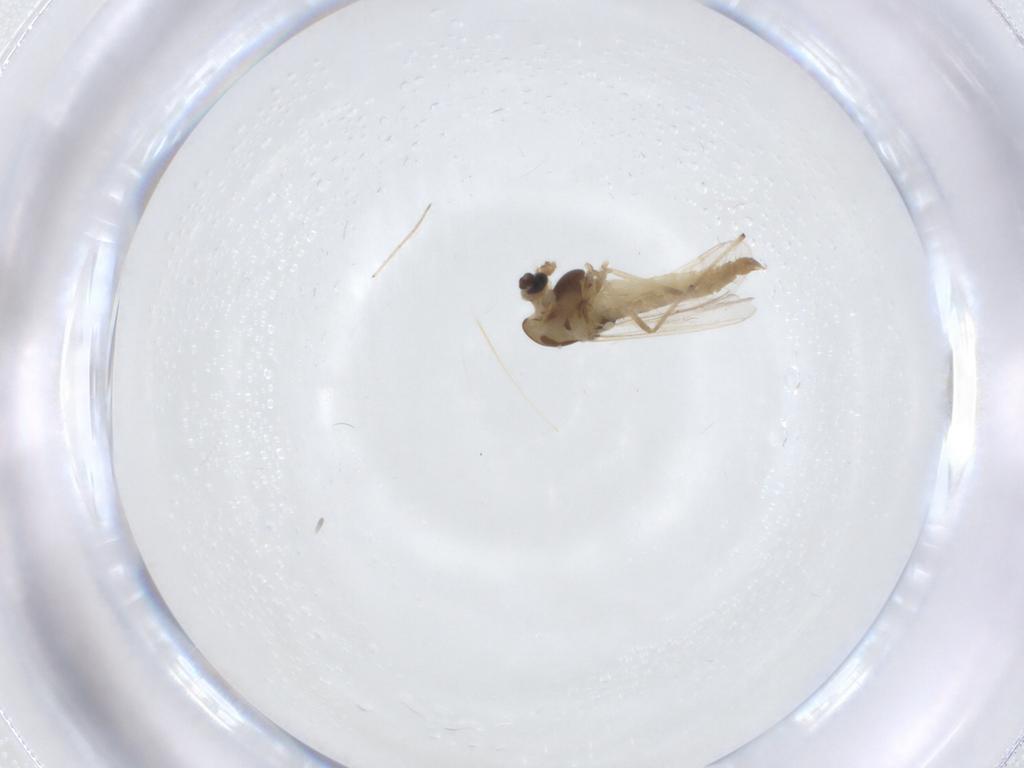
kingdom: Animalia
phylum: Arthropoda
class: Insecta
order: Diptera
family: Chironomidae
